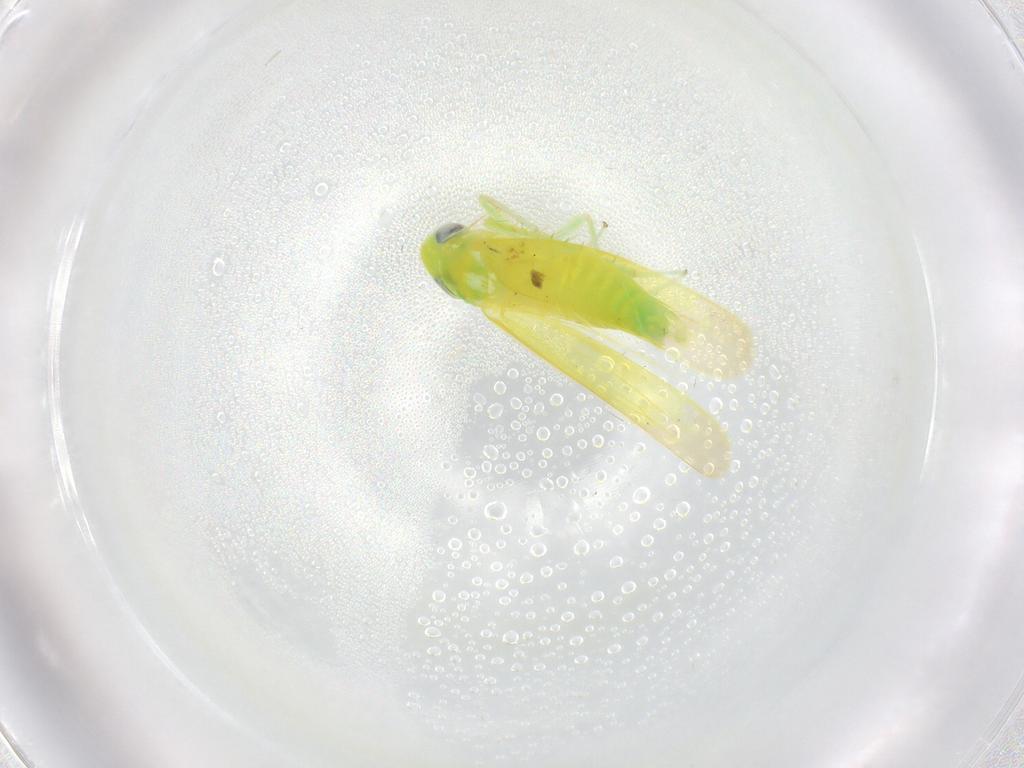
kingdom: Animalia
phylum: Arthropoda
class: Insecta
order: Hemiptera
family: Cicadellidae
